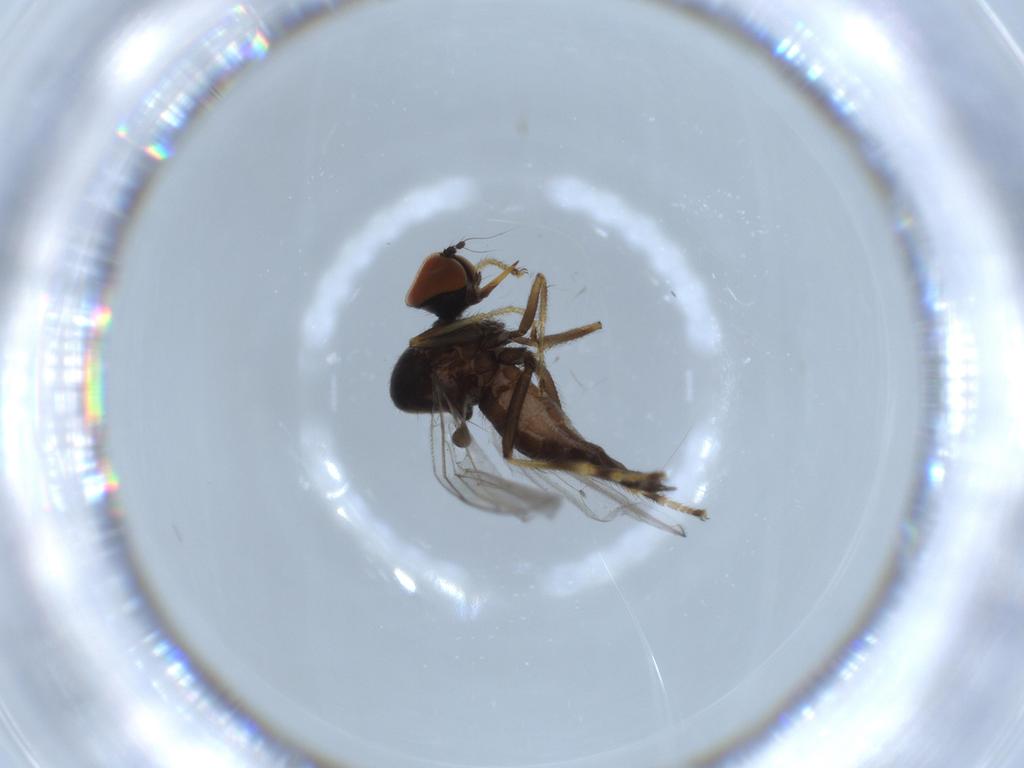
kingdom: Animalia
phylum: Arthropoda
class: Insecta
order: Diptera
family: Hybotidae
